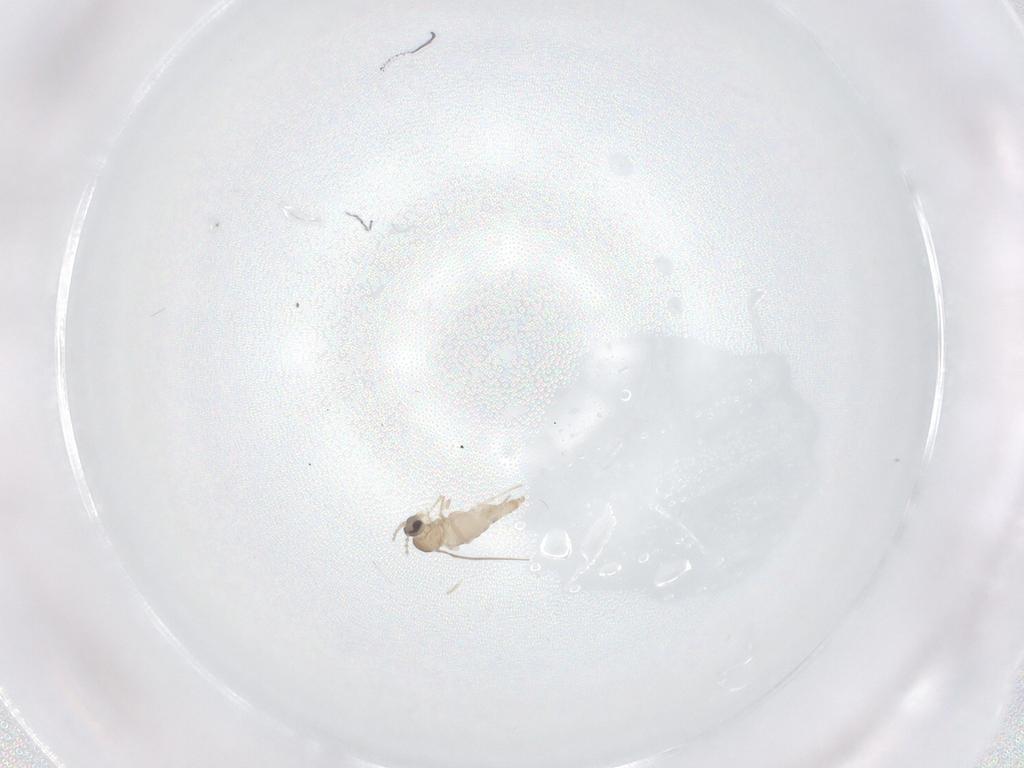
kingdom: Animalia
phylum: Arthropoda
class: Insecta
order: Diptera
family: Cecidomyiidae
